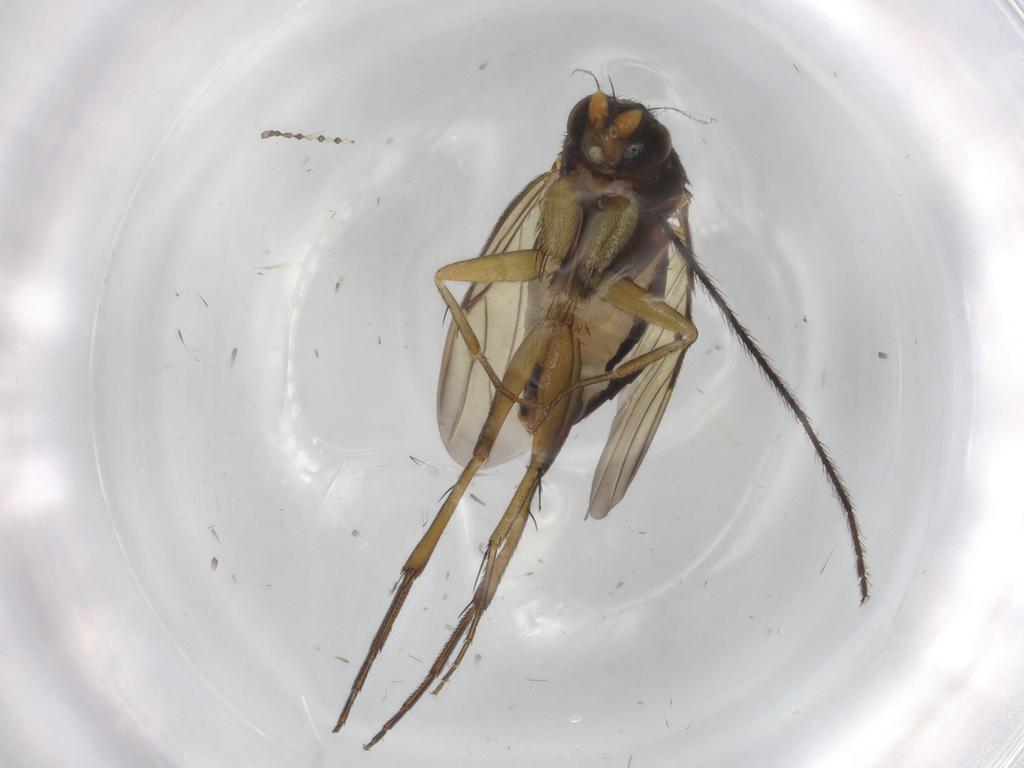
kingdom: Animalia
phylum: Arthropoda
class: Insecta
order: Diptera
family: Phoridae
